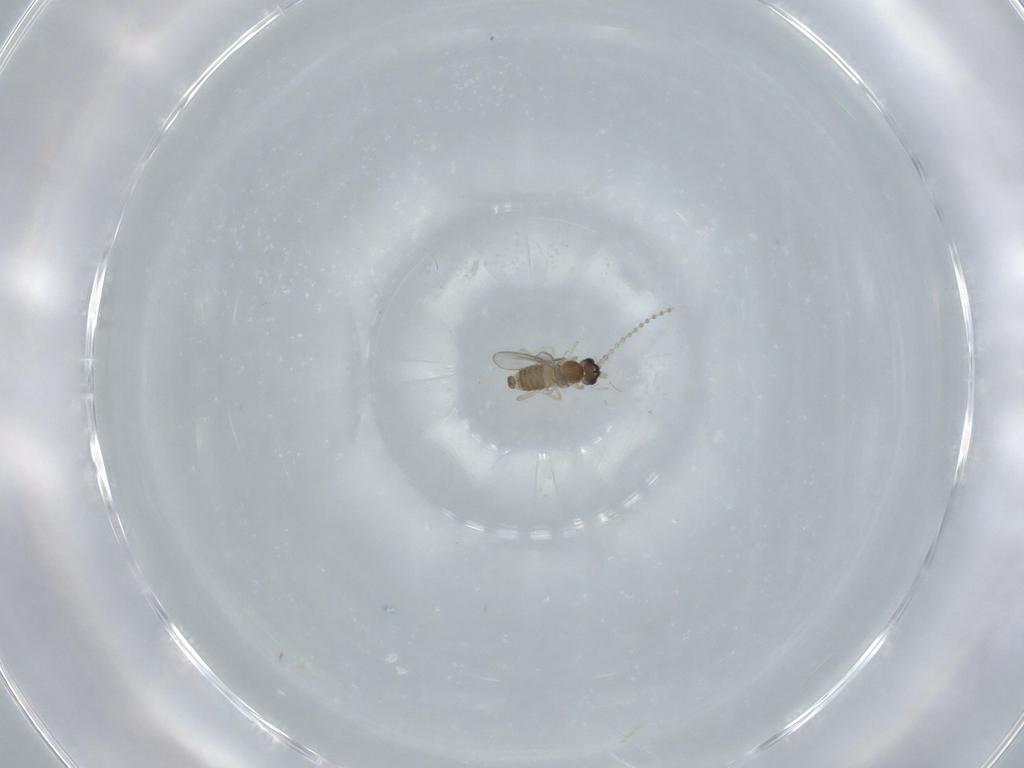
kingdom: Animalia
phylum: Arthropoda
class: Insecta
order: Diptera
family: Cecidomyiidae
